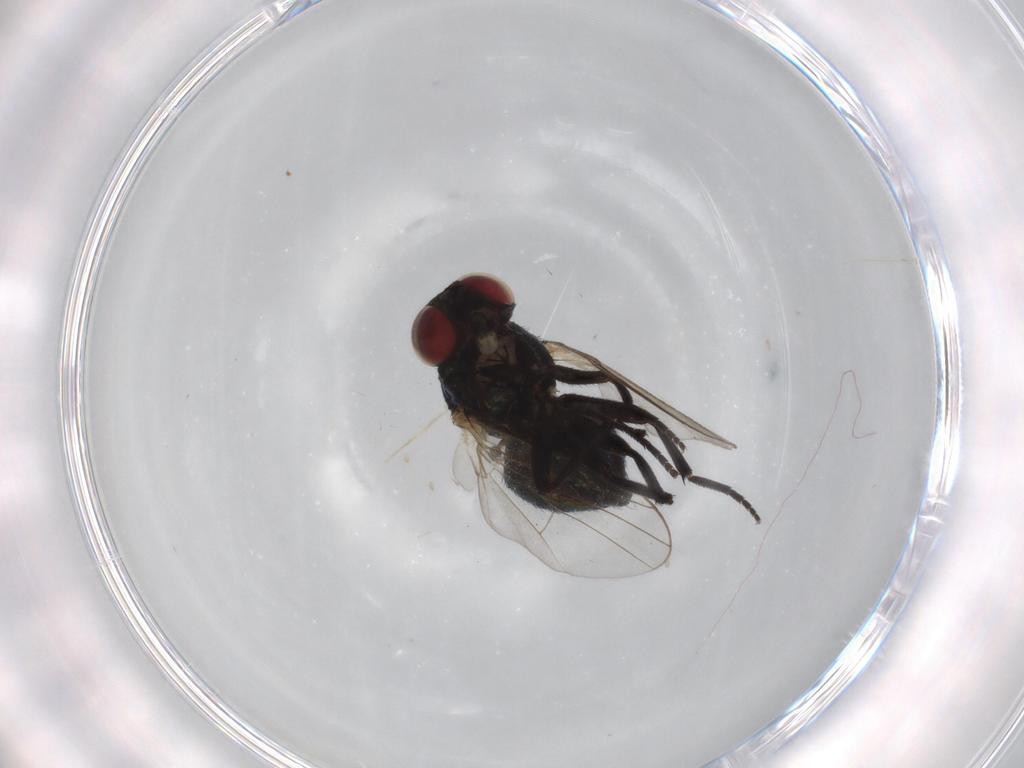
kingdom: Animalia
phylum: Arthropoda
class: Insecta
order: Diptera
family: Agromyzidae
